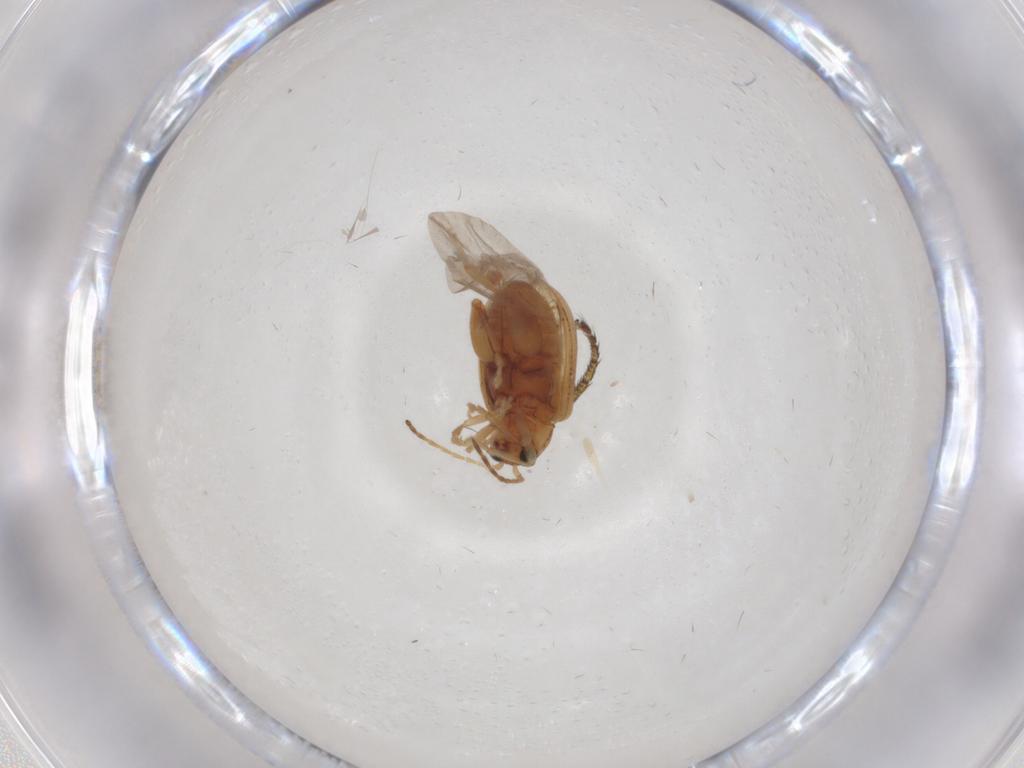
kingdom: Animalia
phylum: Arthropoda
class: Insecta
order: Coleoptera
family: Chrysomelidae
